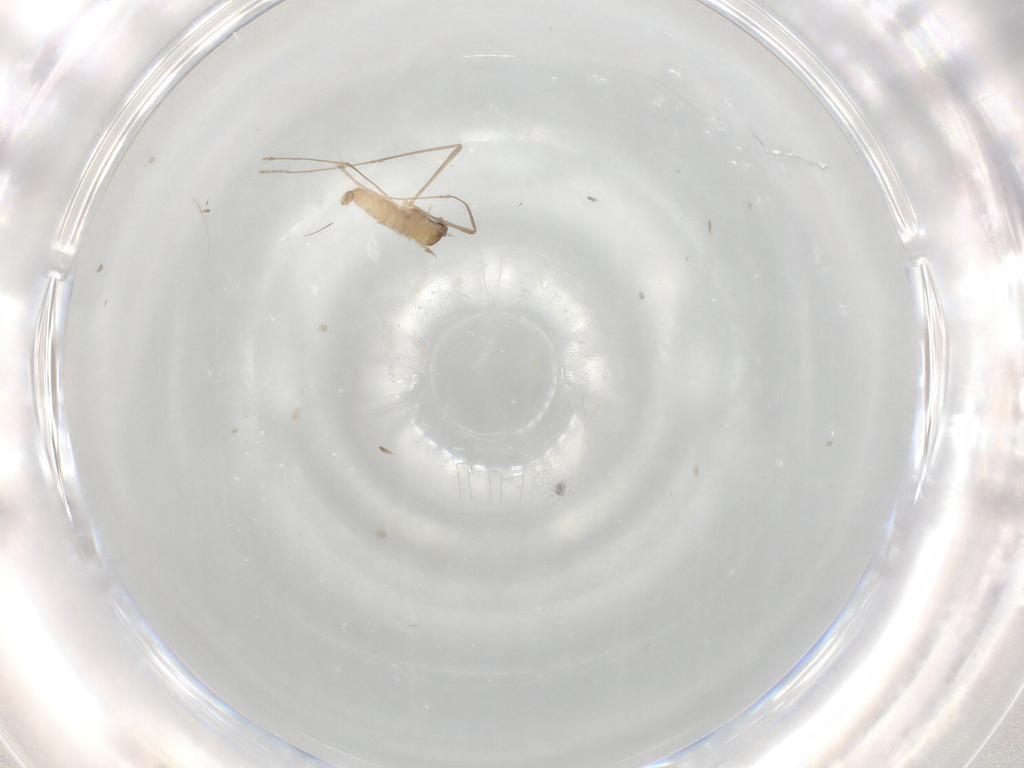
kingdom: Animalia
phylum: Arthropoda
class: Insecta
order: Diptera
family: Cecidomyiidae
